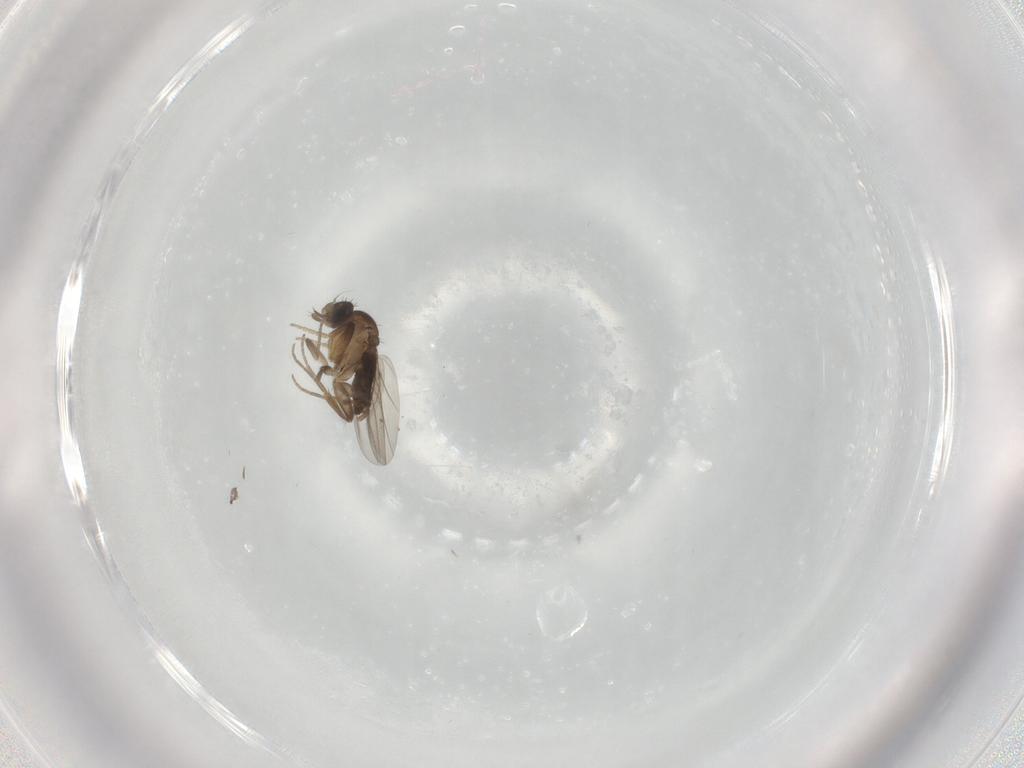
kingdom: Animalia
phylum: Arthropoda
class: Insecta
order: Diptera
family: Phoridae
